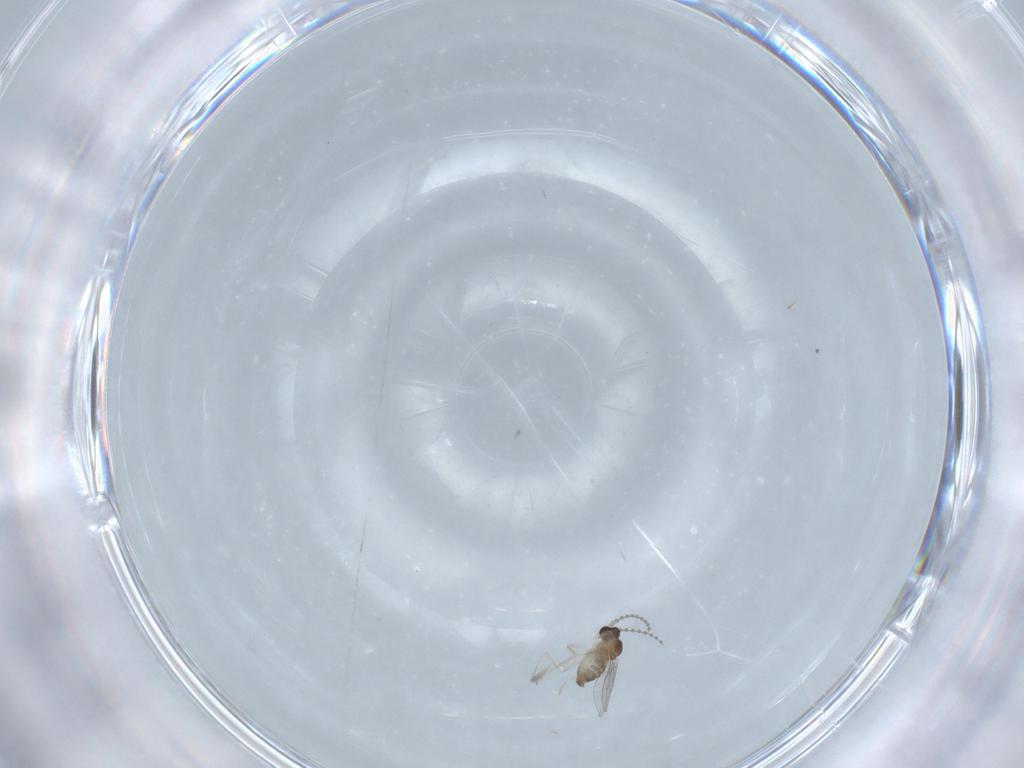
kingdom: Animalia
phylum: Arthropoda
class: Insecta
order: Diptera
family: Cecidomyiidae
